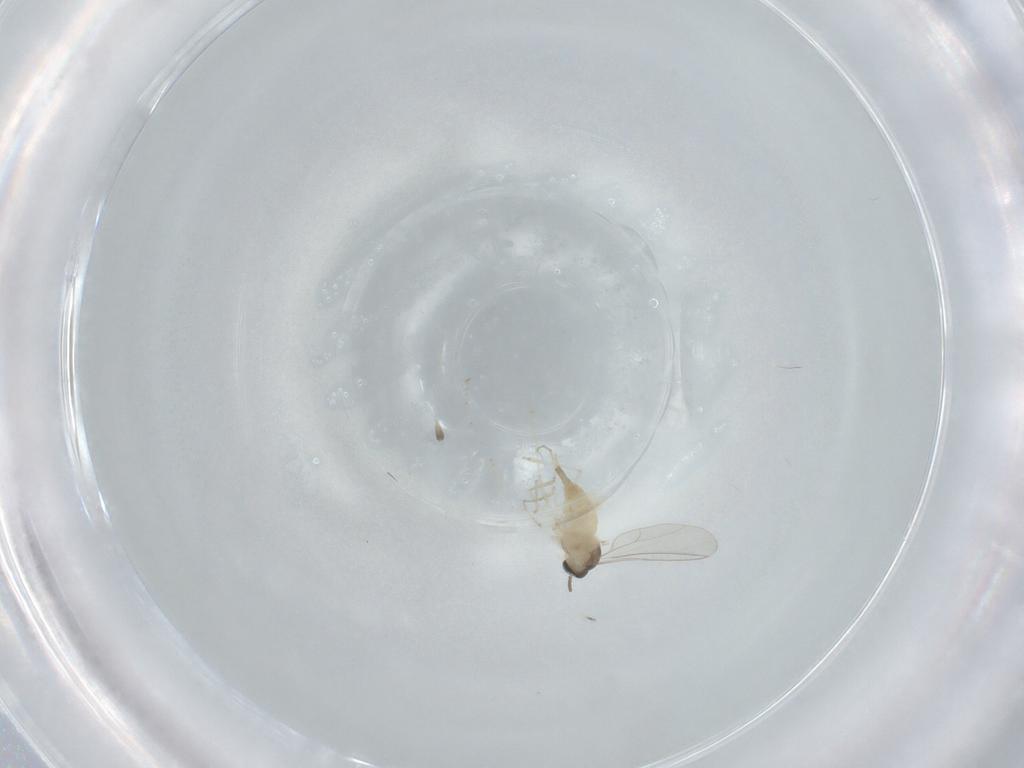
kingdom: Animalia
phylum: Arthropoda
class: Insecta
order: Diptera
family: Cecidomyiidae
